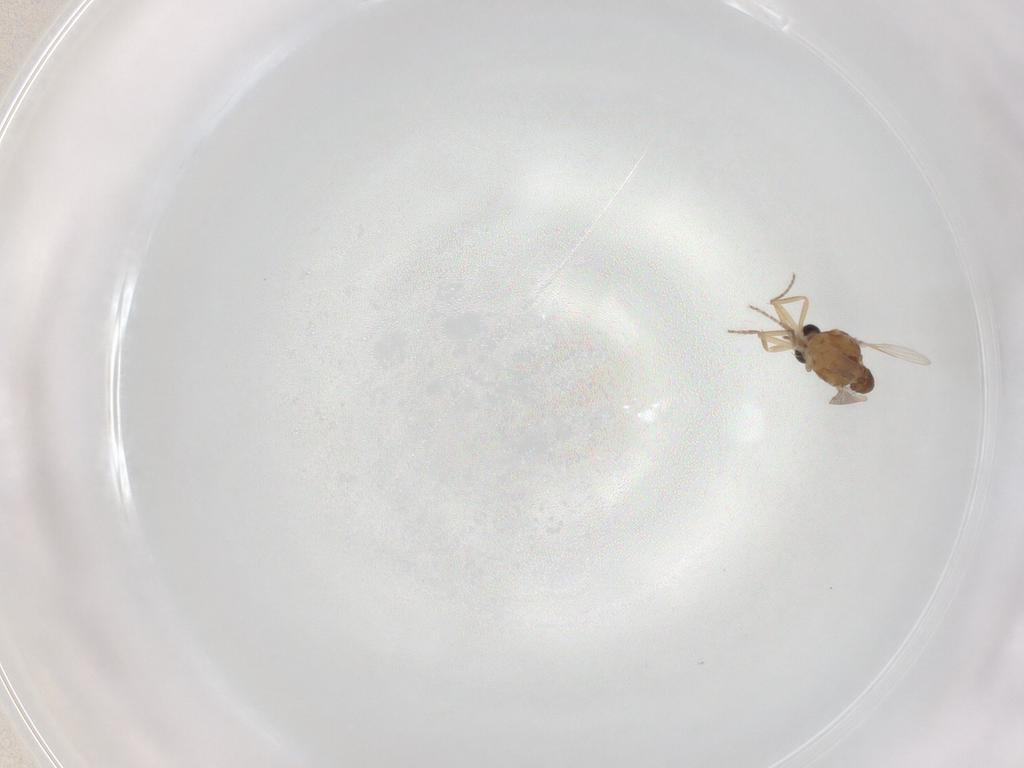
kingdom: Animalia
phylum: Arthropoda
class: Insecta
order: Diptera
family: Ceratopogonidae
